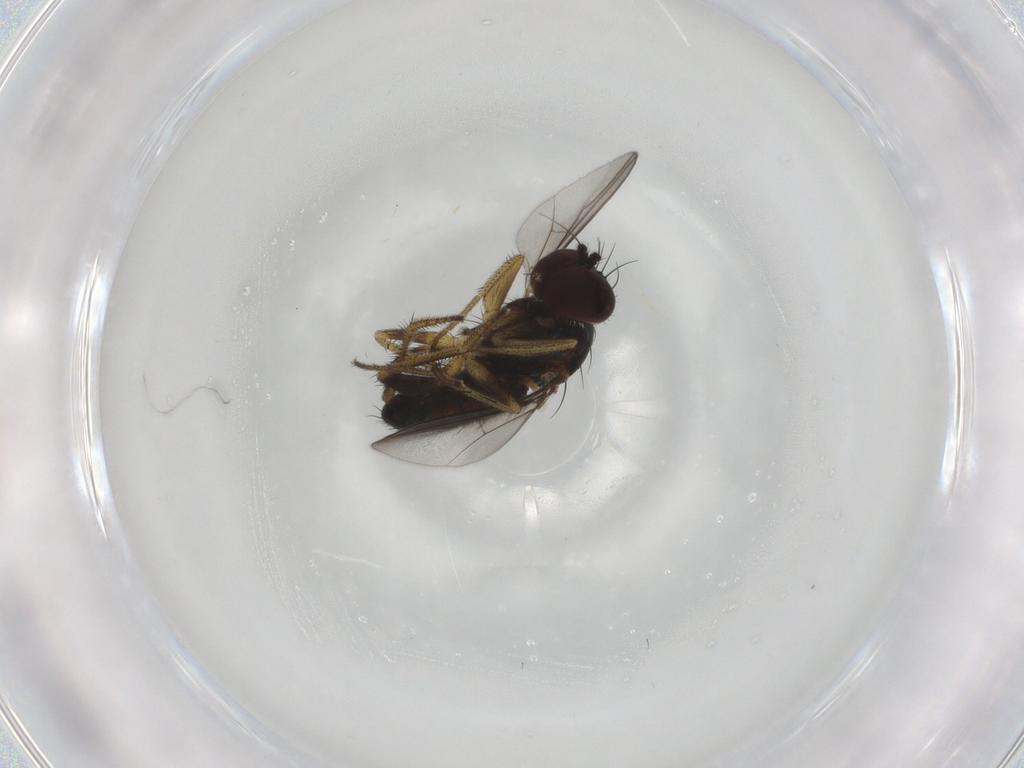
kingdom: Animalia
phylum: Arthropoda
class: Insecta
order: Diptera
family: Dolichopodidae
